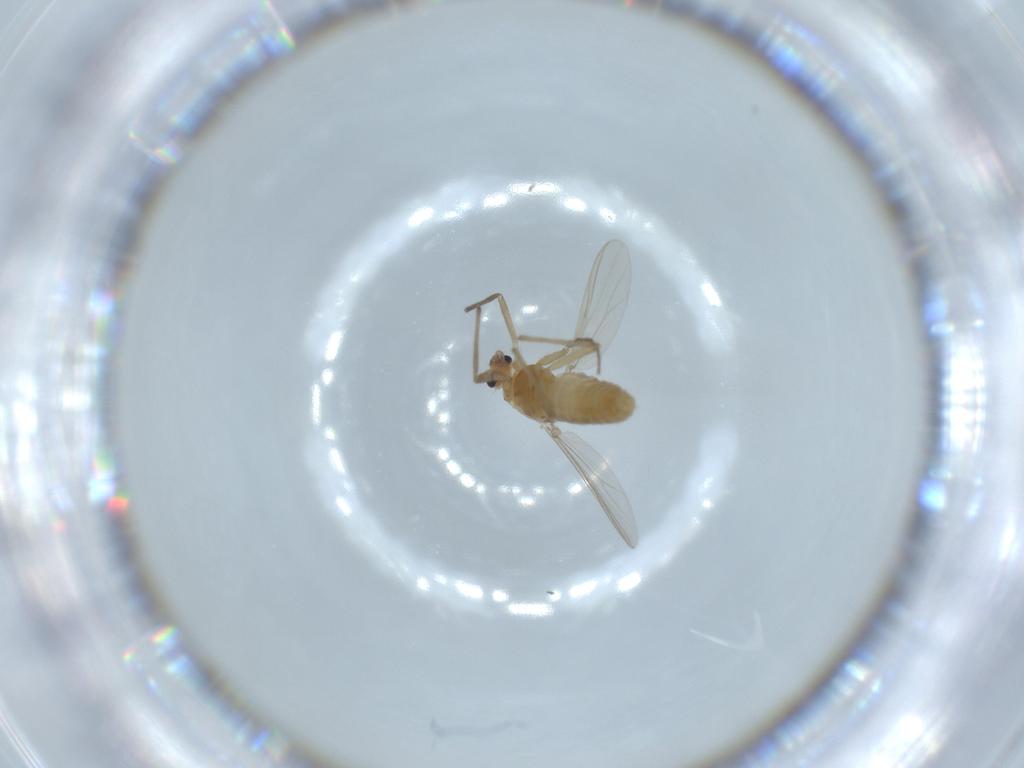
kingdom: Animalia
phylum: Arthropoda
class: Insecta
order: Diptera
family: Chironomidae
